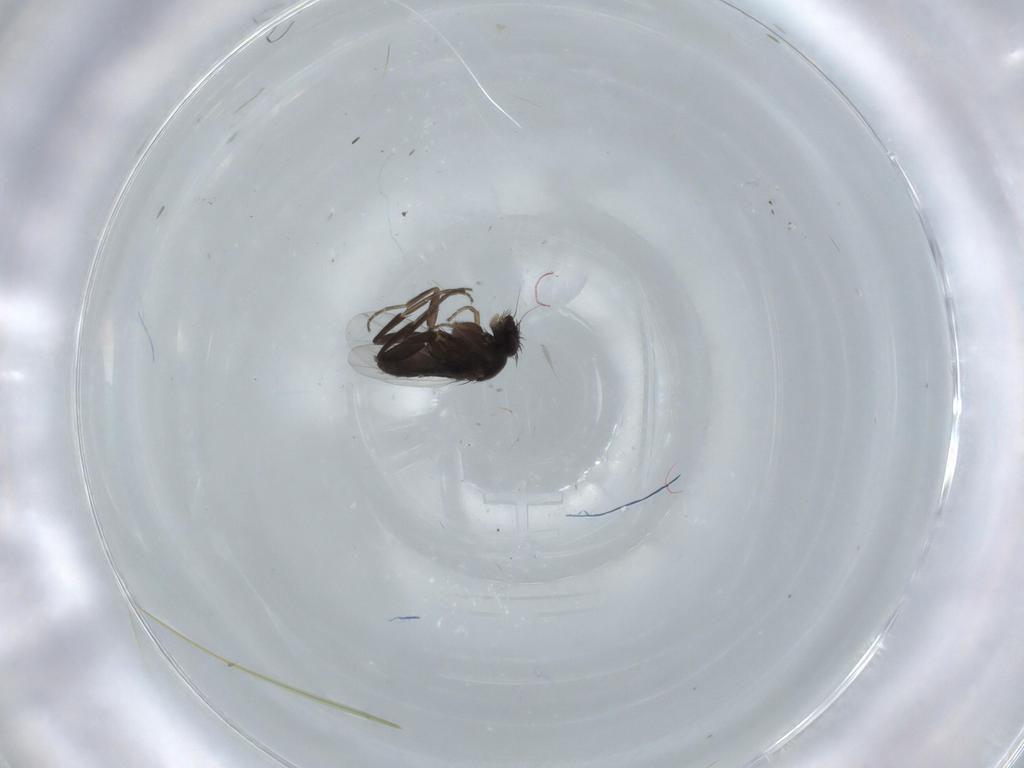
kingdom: Animalia
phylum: Arthropoda
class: Insecta
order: Diptera
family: Phoridae
